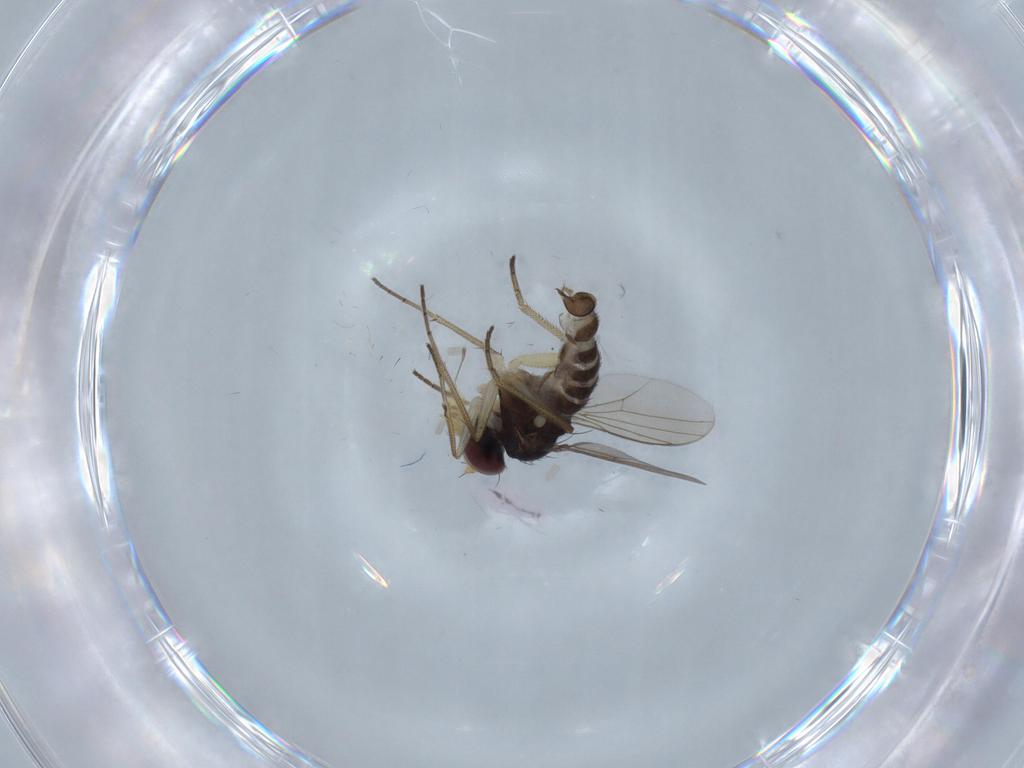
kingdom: Animalia
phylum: Arthropoda
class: Insecta
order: Diptera
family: Dolichopodidae
